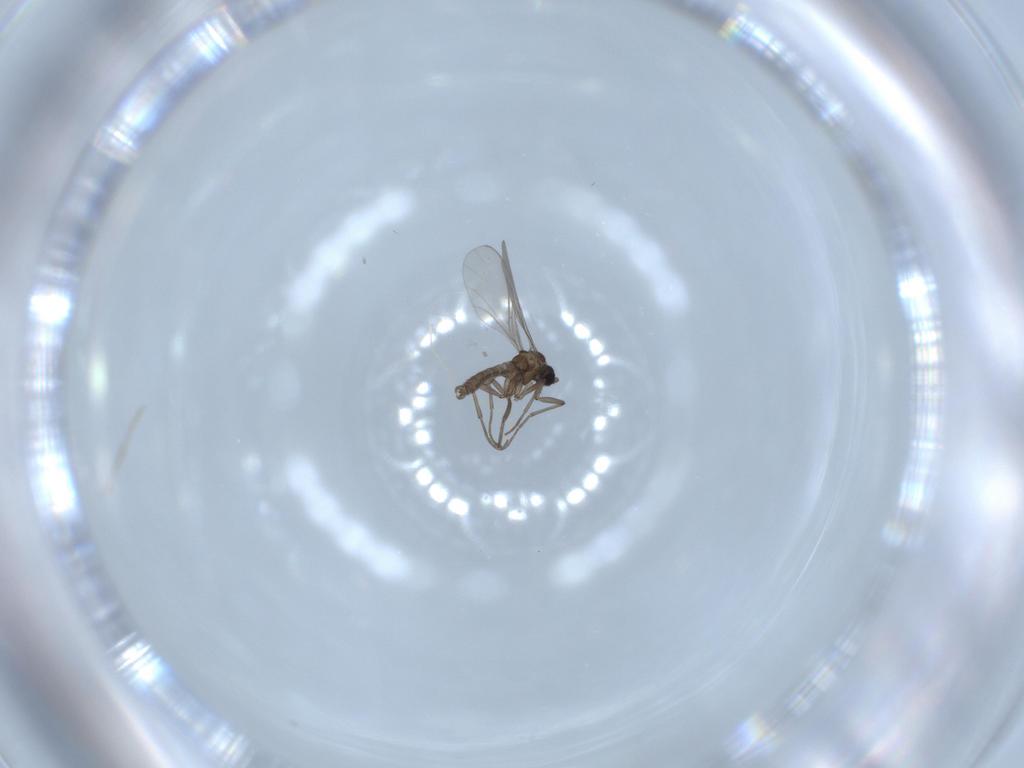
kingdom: Animalia
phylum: Arthropoda
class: Insecta
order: Diptera
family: Sciaridae
